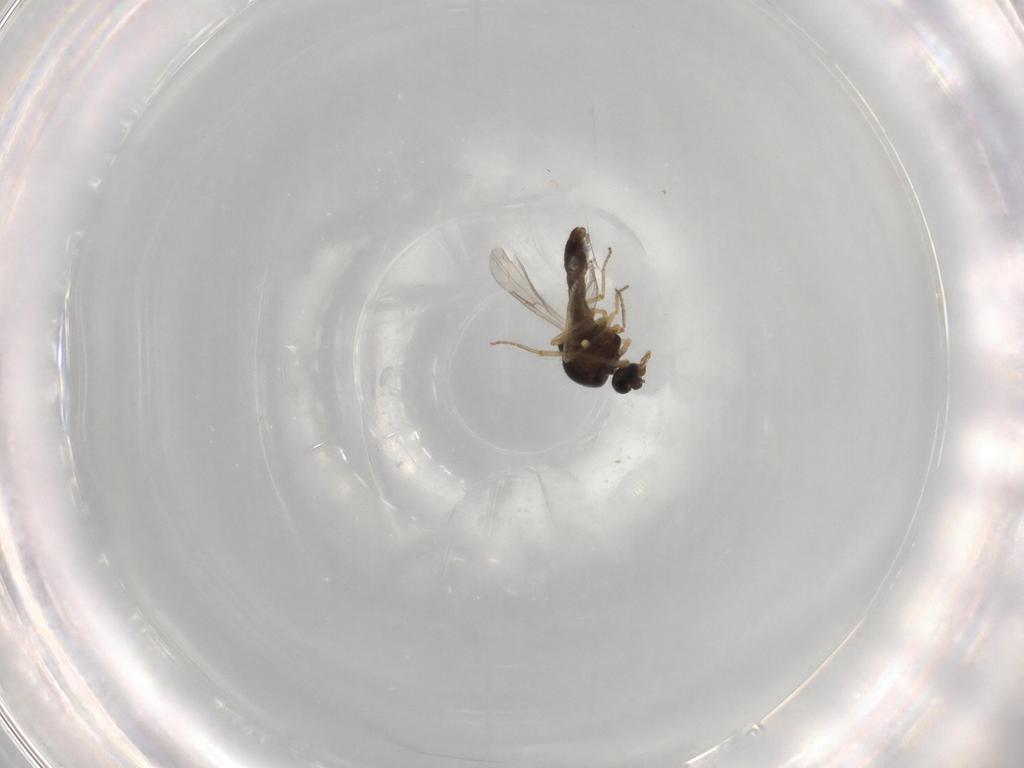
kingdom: Animalia
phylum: Arthropoda
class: Insecta
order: Diptera
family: Ceratopogonidae
